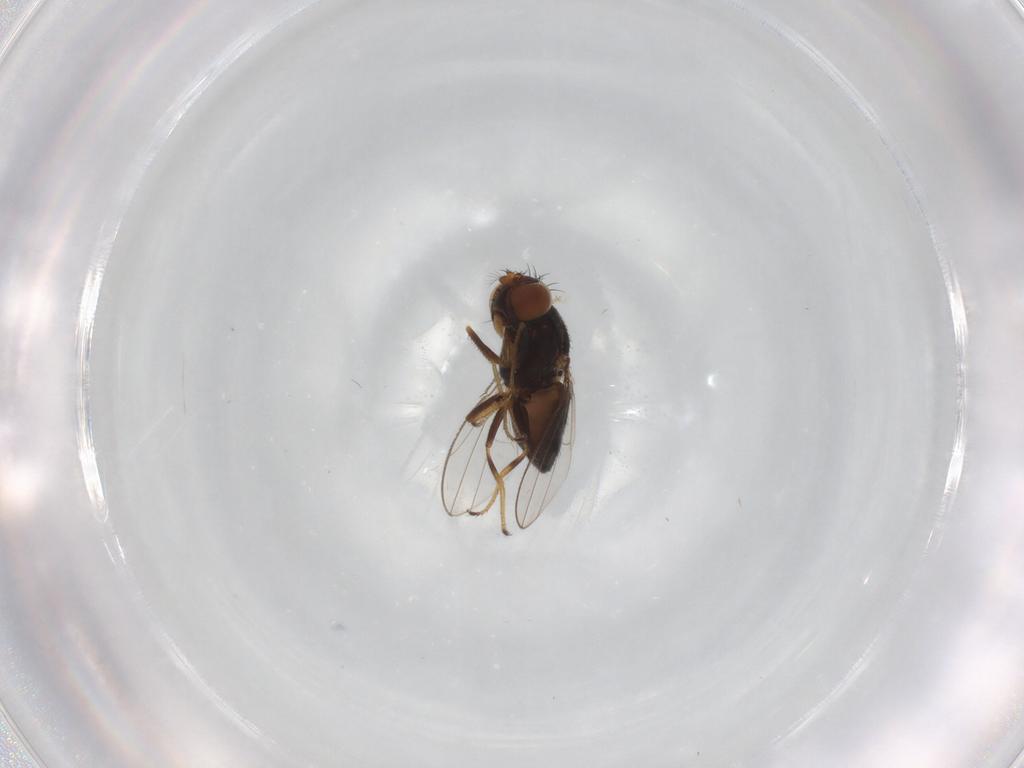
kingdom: Animalia
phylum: Arthropoda
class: Insecta
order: Diptera
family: Ephydridae
